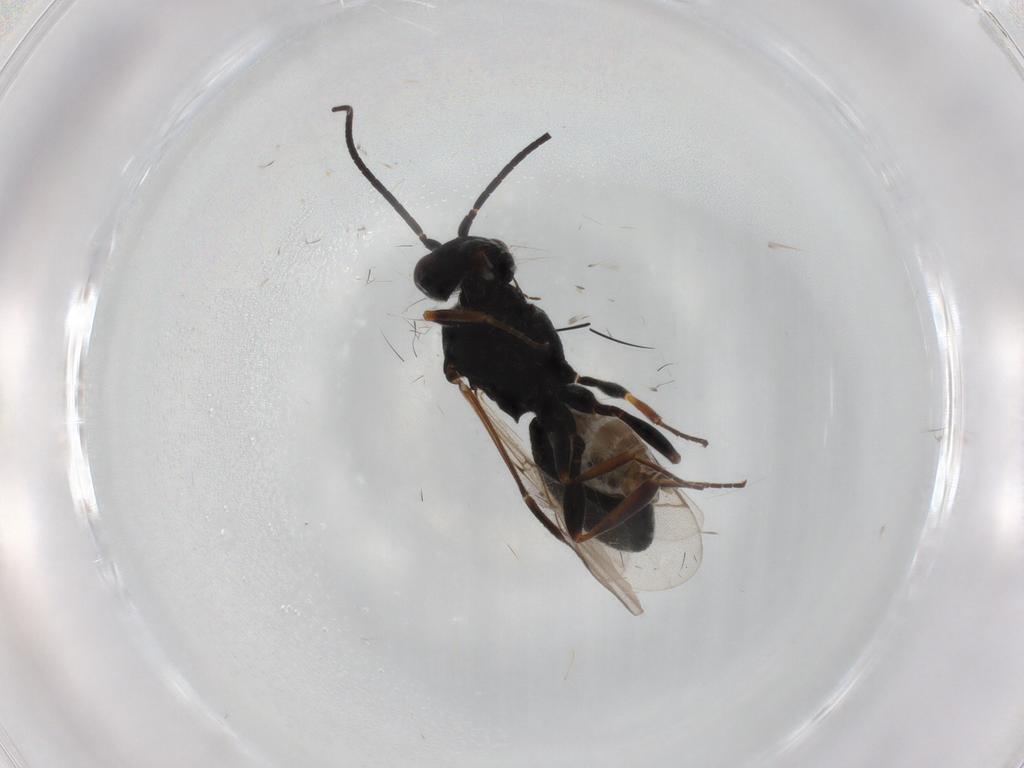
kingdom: Animalia
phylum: Arthropoda
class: Insecta
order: Hymenoptera
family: Braconidae
